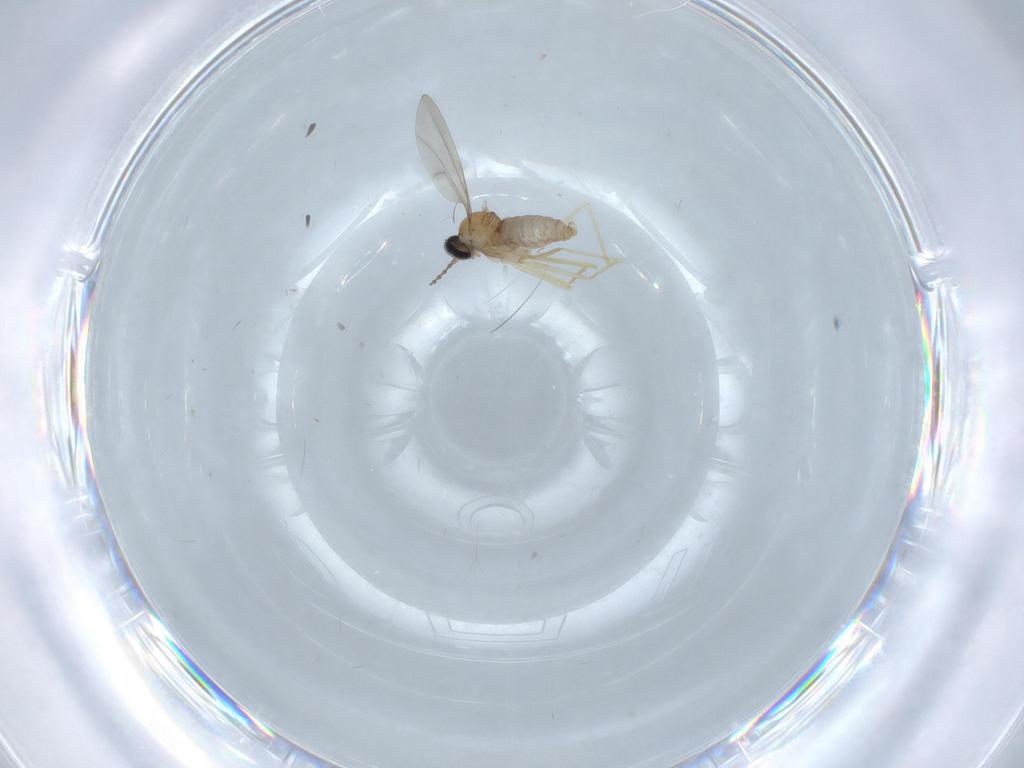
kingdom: Animalia
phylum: Arthropoda
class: Insecta
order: Diptera
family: Cecidomyiidae
